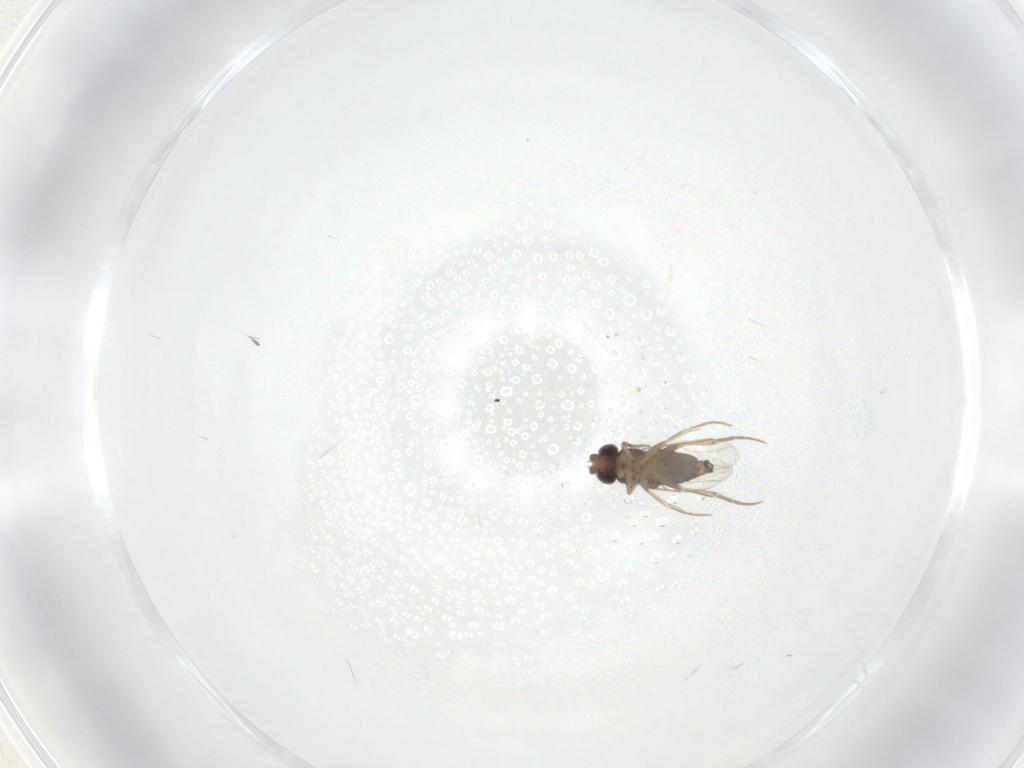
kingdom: Animalia
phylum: Arthropoda
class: Insecta
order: Diptera
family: Phoridae
